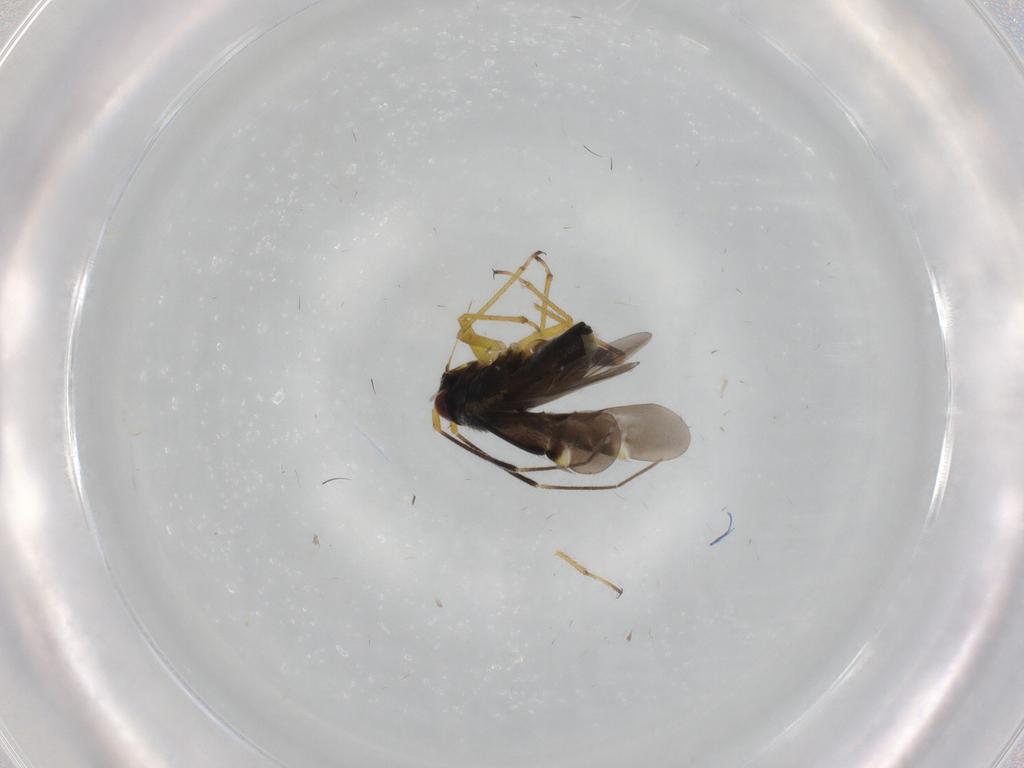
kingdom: Animalia
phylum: Arthropoda
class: Insecta
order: Hemiptera
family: Miridae
